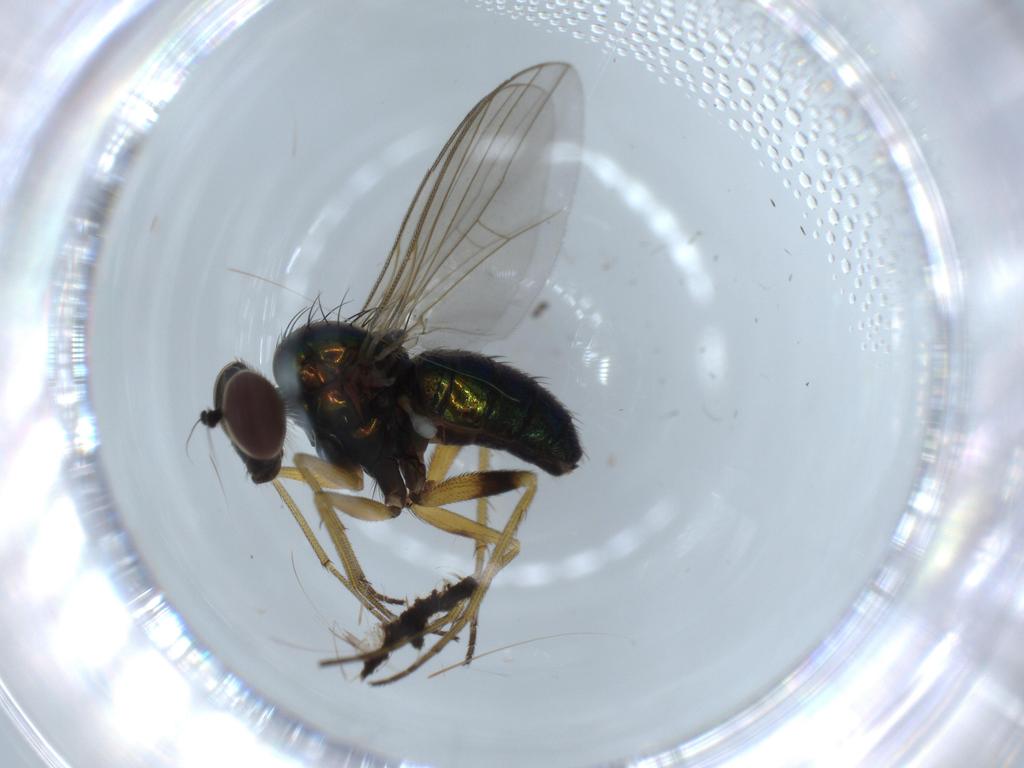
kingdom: Animalia
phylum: Arthropoda
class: Insecta
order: Diptera
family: Dolichopodidae
